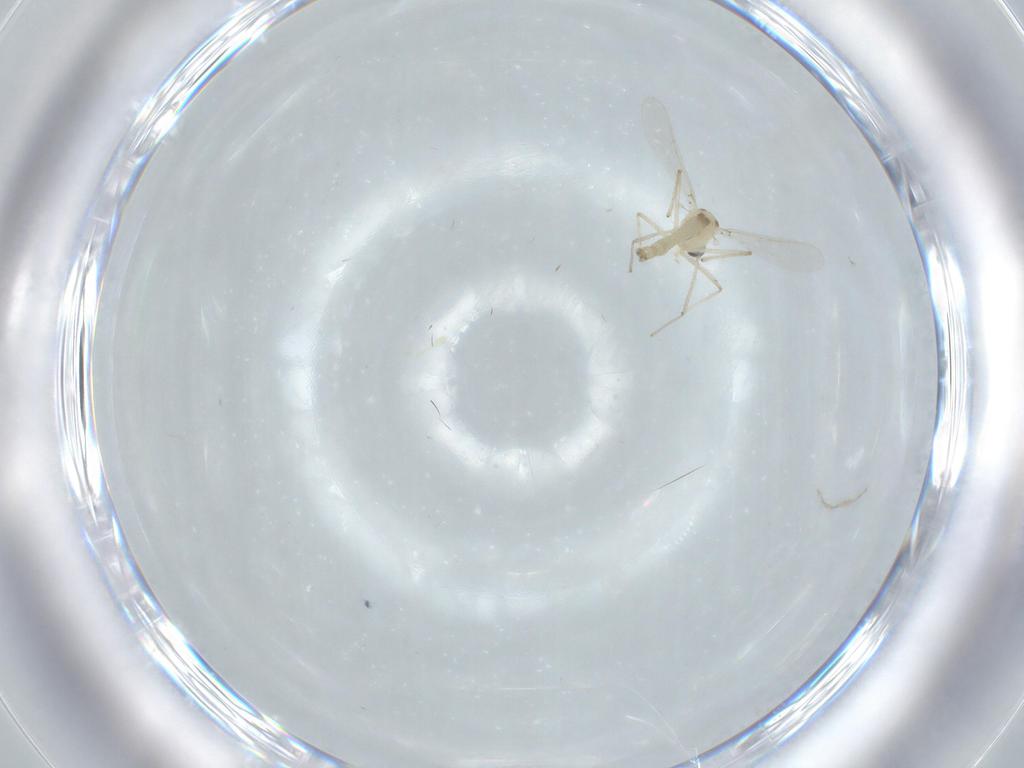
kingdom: Animalia
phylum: Arthropoda
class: Insecta
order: Diptera
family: Chironomidae
